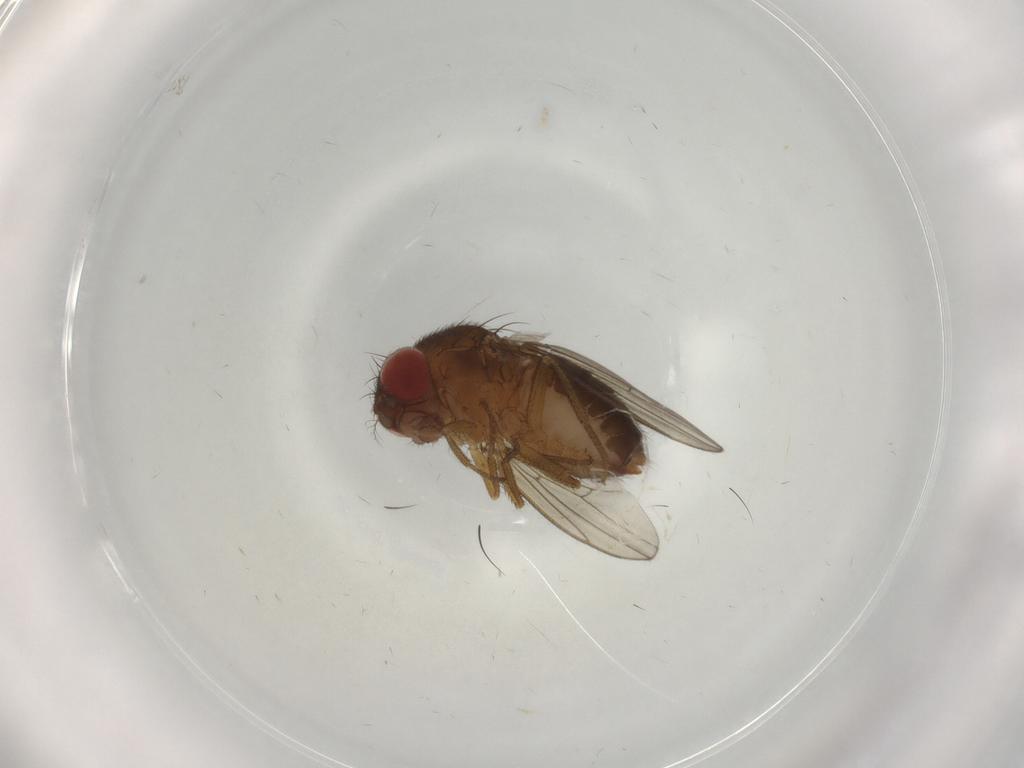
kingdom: Animalia
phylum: Arthropoda
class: Insecta
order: Diptera
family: Drosophilidae
